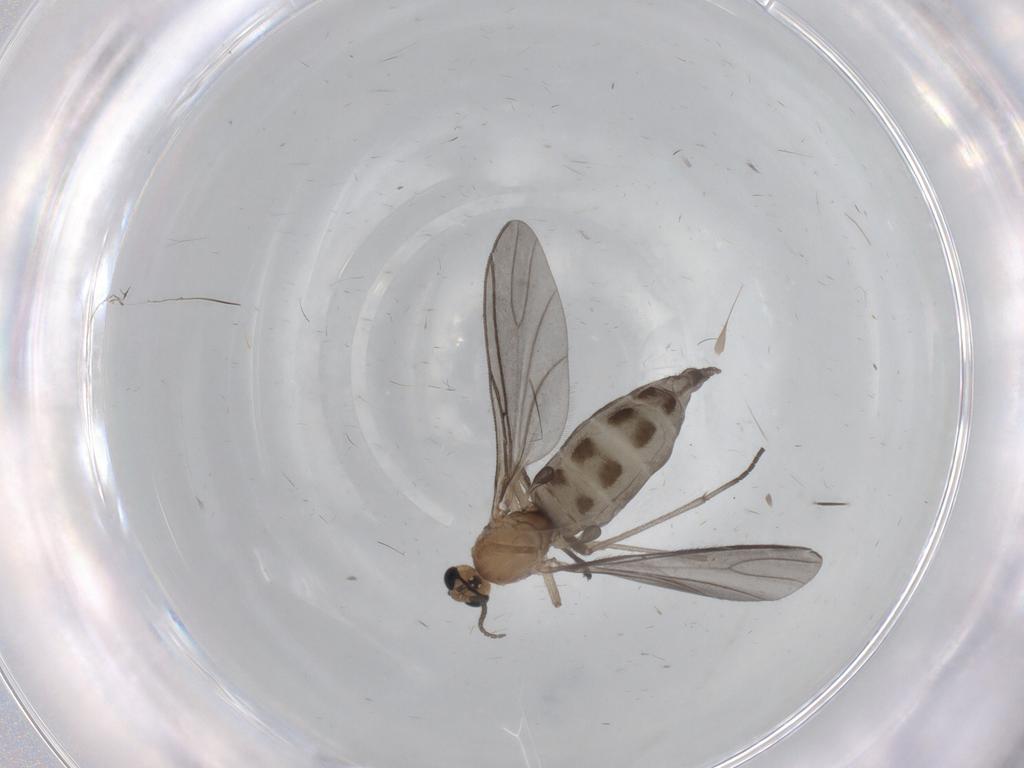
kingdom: Animalia
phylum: Arthropoda
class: Insecta
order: Diptera
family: Sciaridae
